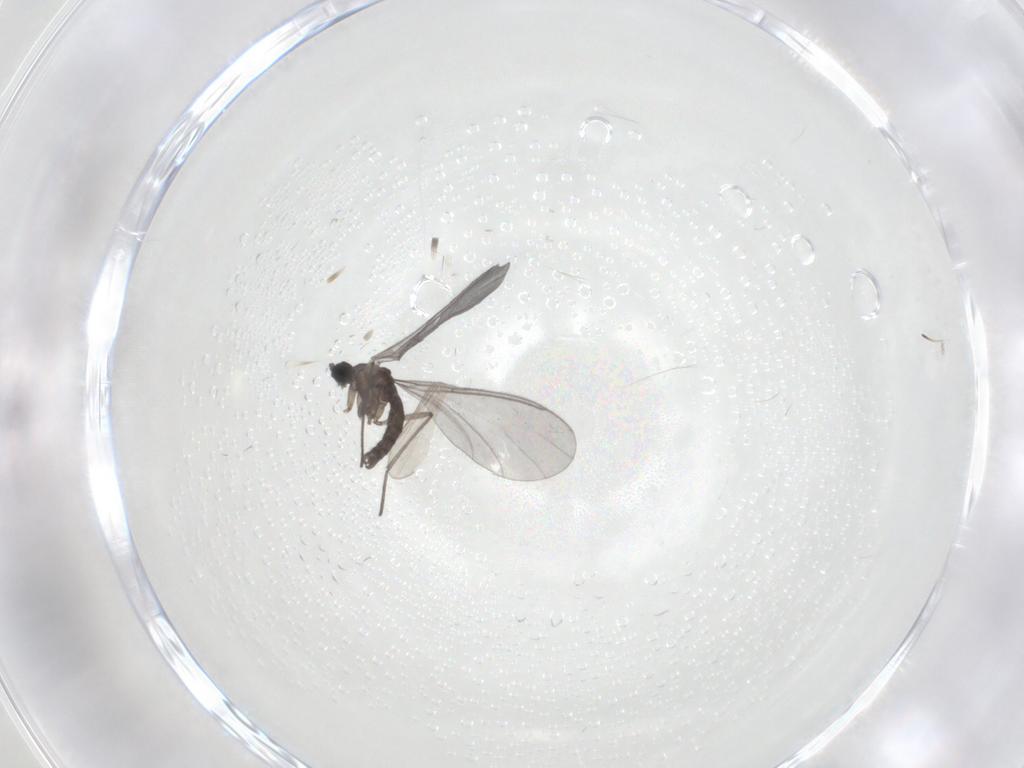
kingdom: Animalia
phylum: Arthropoda
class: Insecta
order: Diptera
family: Sciaridae
